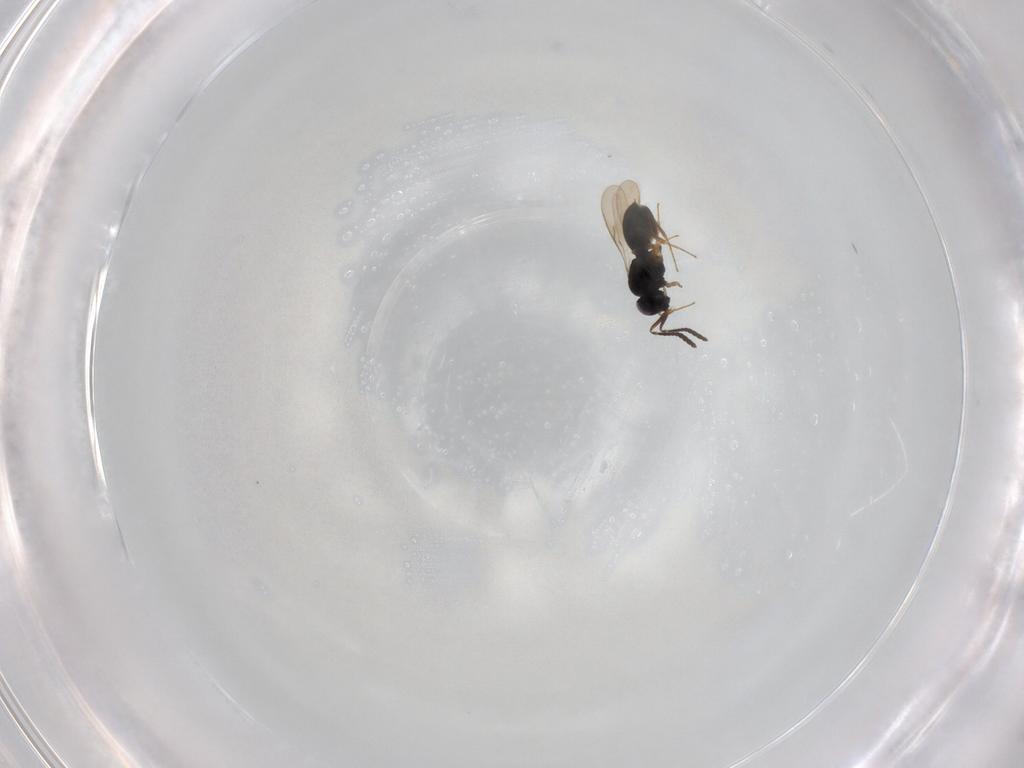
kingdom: Animalia
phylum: Arthropoda
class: Insecta
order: Hymenoptera
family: Scelionidae
